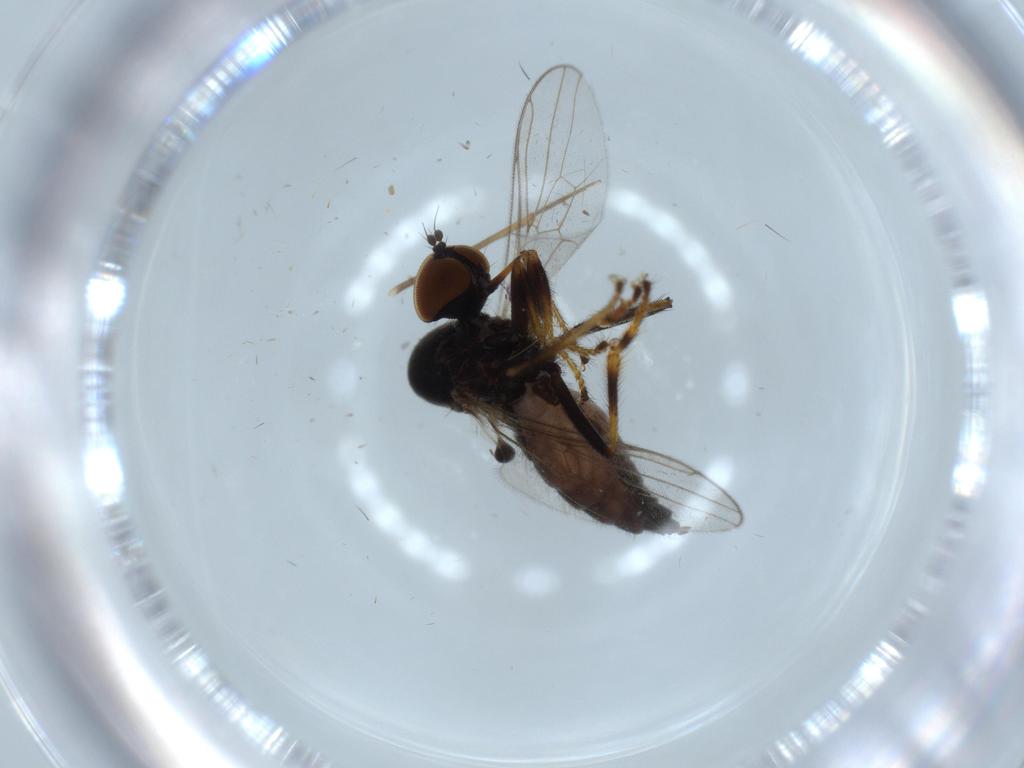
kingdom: Animalia
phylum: Arthropoda
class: Insecta
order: Diptera
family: Hybotidae
